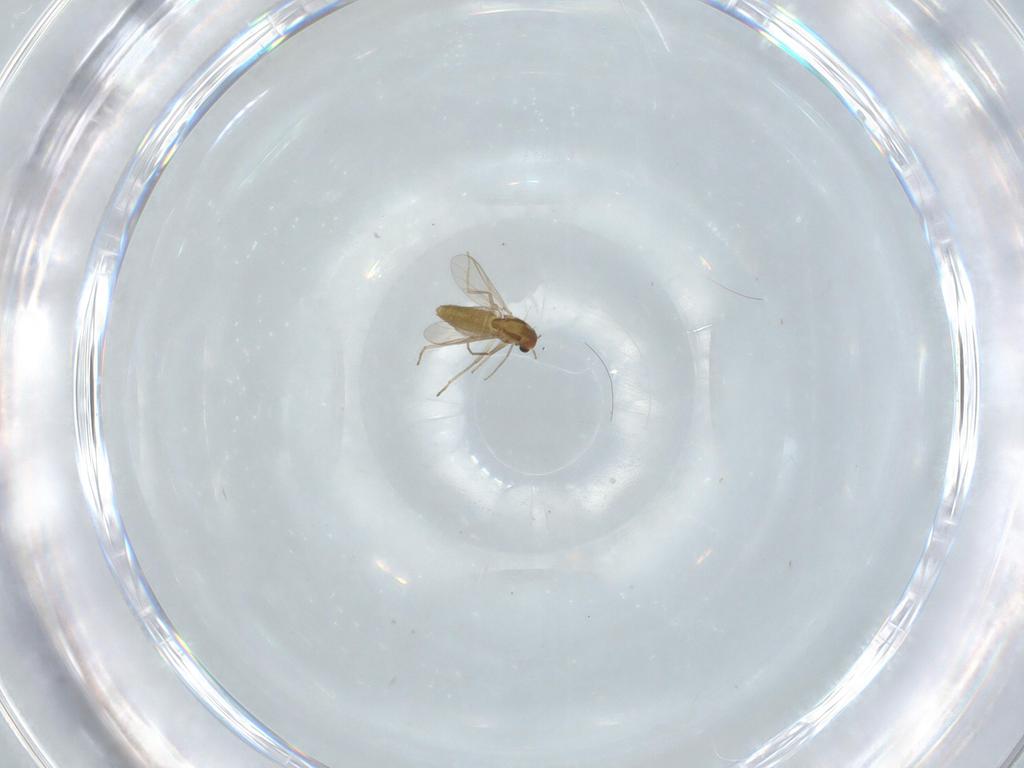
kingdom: Animalia
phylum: Arthropoda
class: Insecta
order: Diptera
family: Chironomidae
